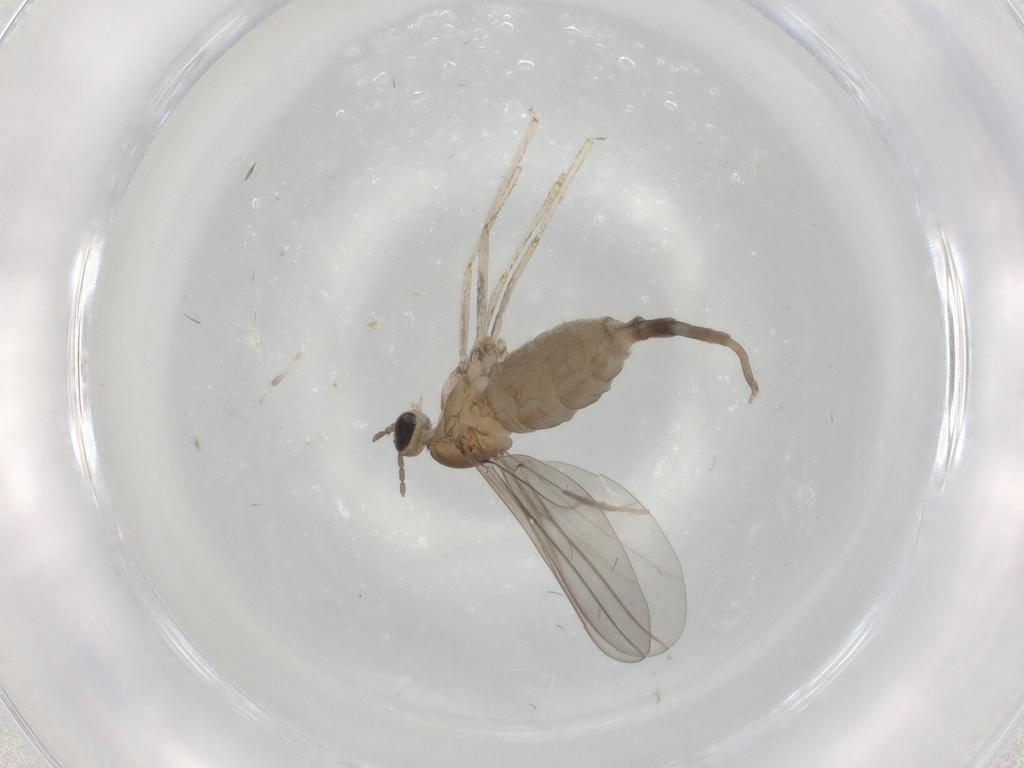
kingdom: Animalia
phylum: Arthropoda
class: Insecta
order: Diptera
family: Cecidomyiidae
